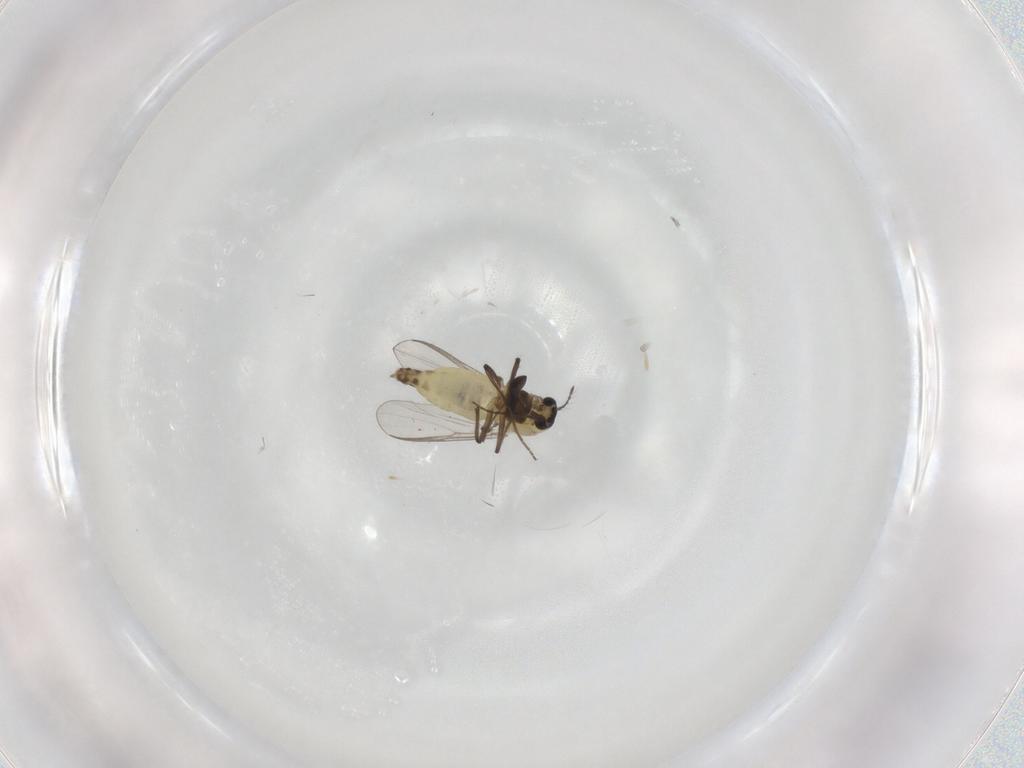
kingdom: Animalia
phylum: Arthropoda
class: Insecta
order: Diptera
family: Chironomidae
